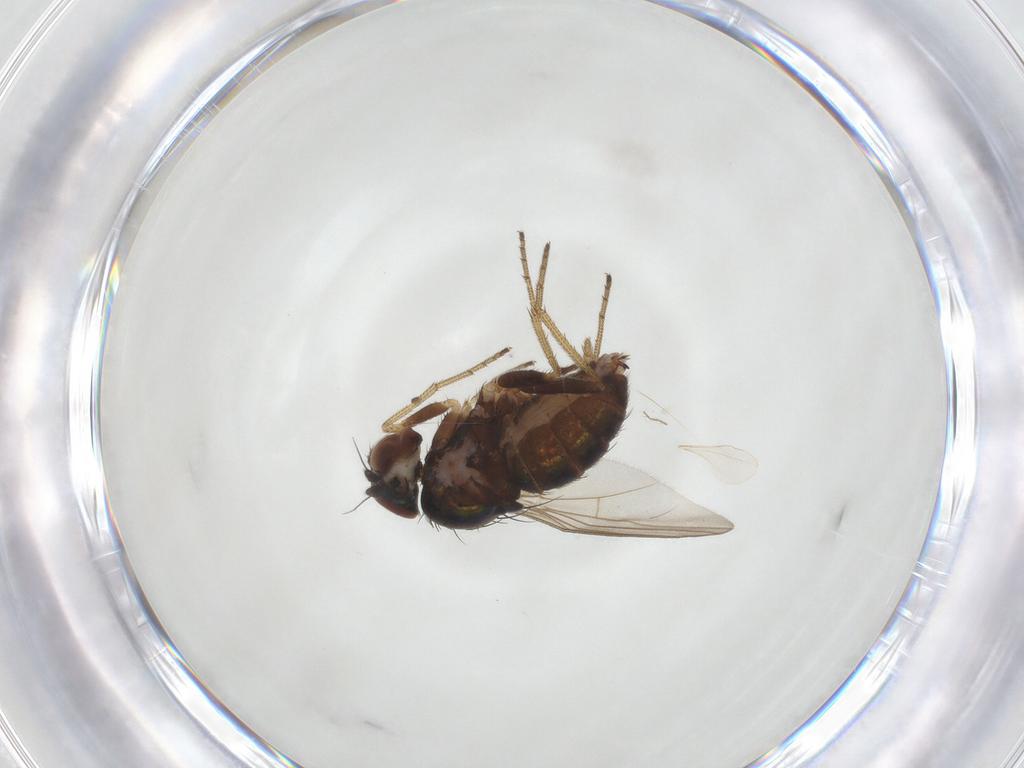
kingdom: Animalia
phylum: Arthropoda
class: Insecta
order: Diptera
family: Dolichopodidae
